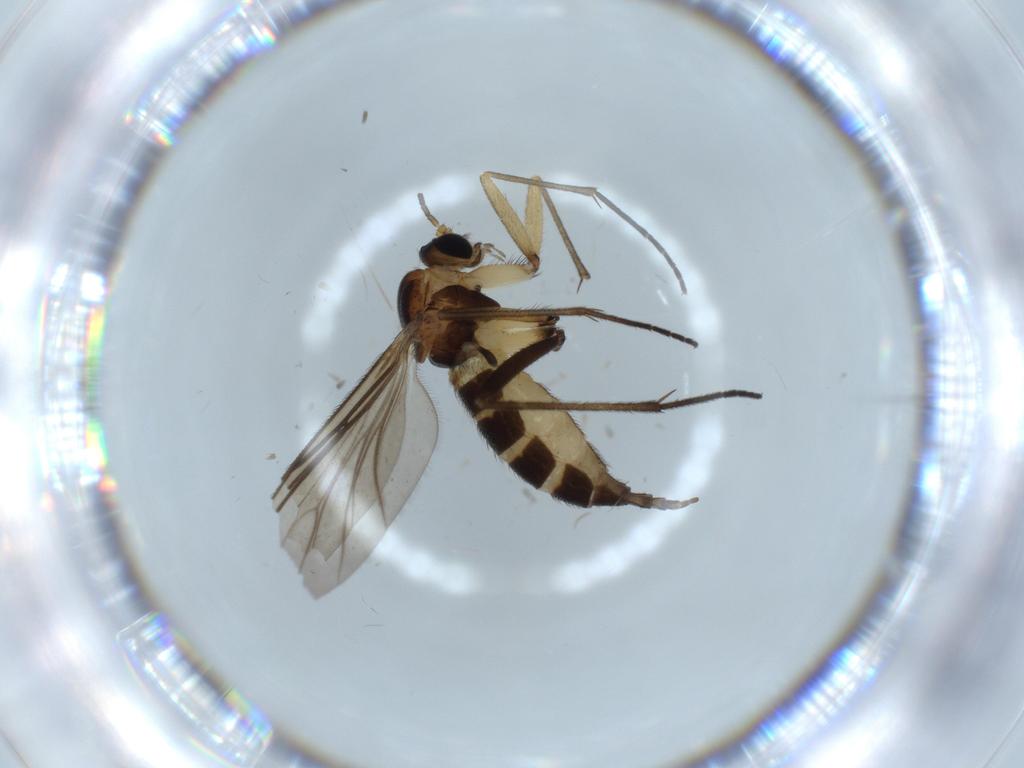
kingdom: Animalia
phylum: Arthropoda
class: Insecta
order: Diptera
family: Sciaridae
